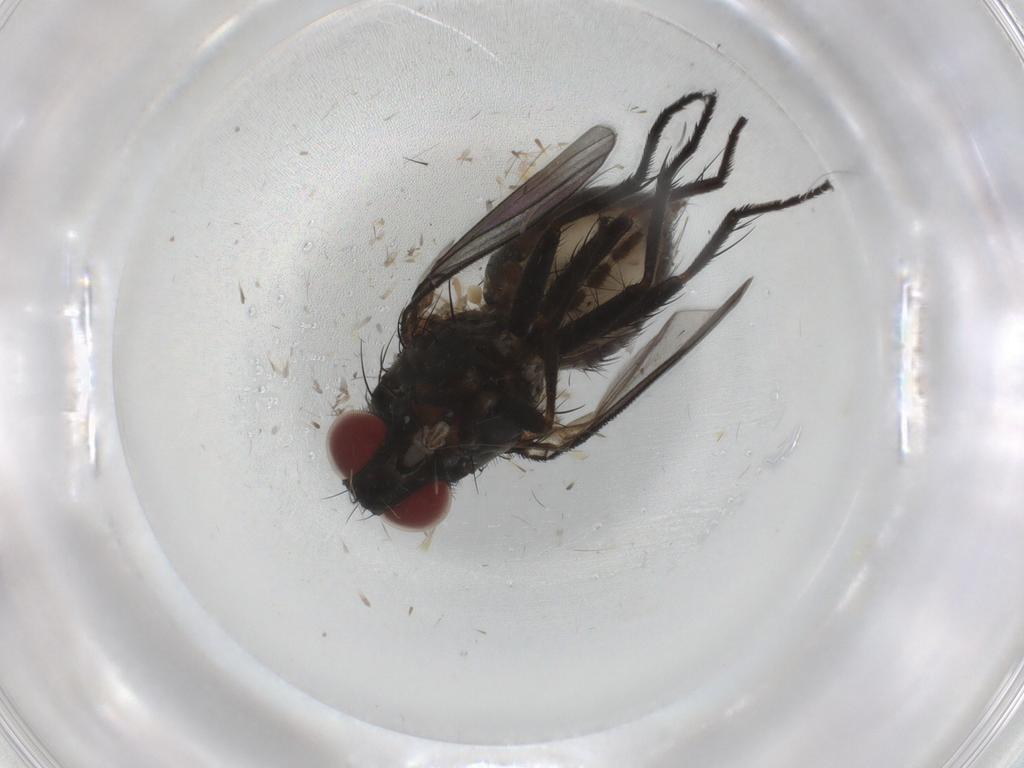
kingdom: Animalia
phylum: Arthropoda
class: Insecta
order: Diptera
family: Muscidae
